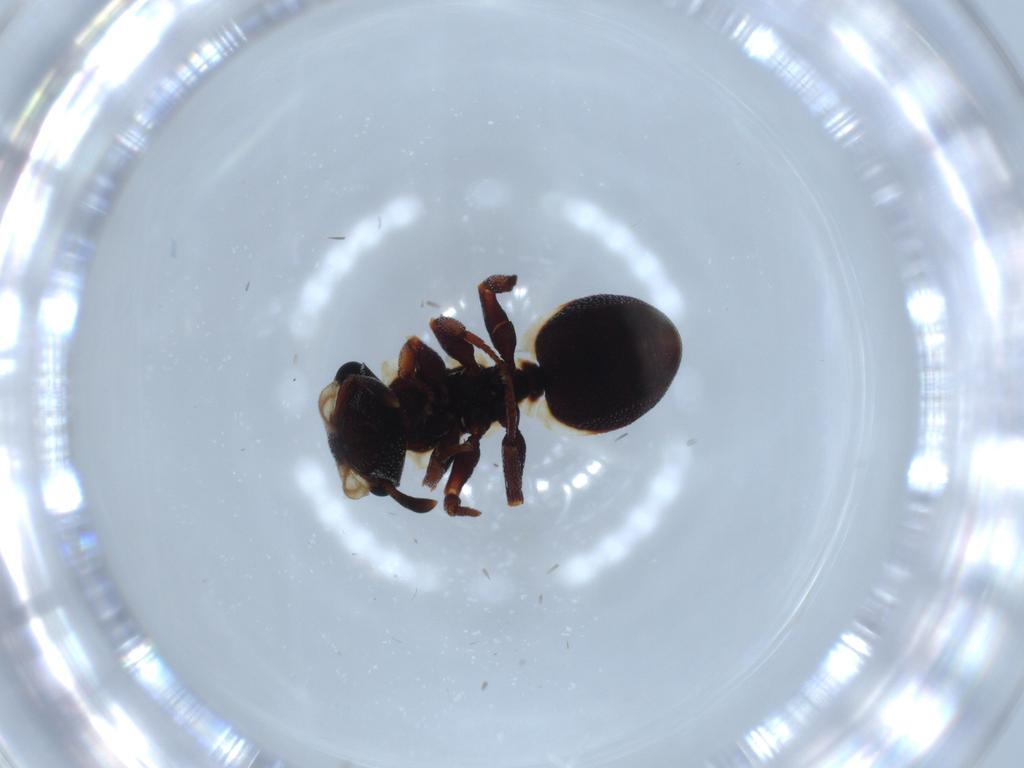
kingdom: Animalia
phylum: Arthropoda
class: Insecta
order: Hymenoptera
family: Formicidae
